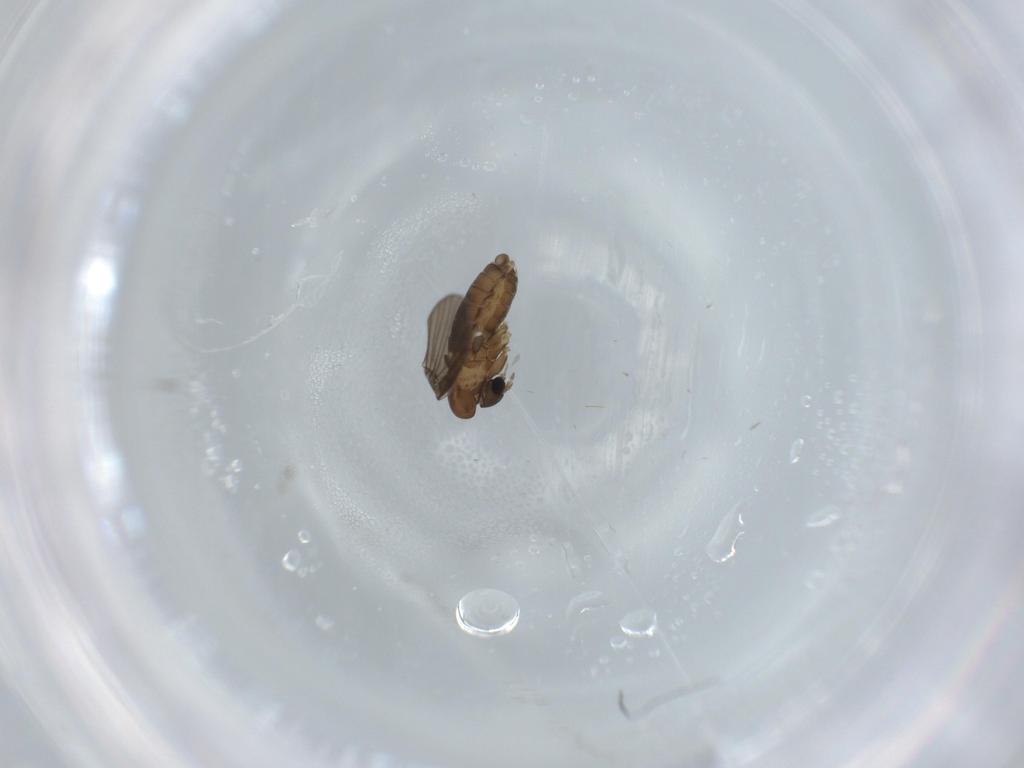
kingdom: Animalia
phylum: Arthropoda
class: Insecta
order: Diptera
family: Psychodidae
